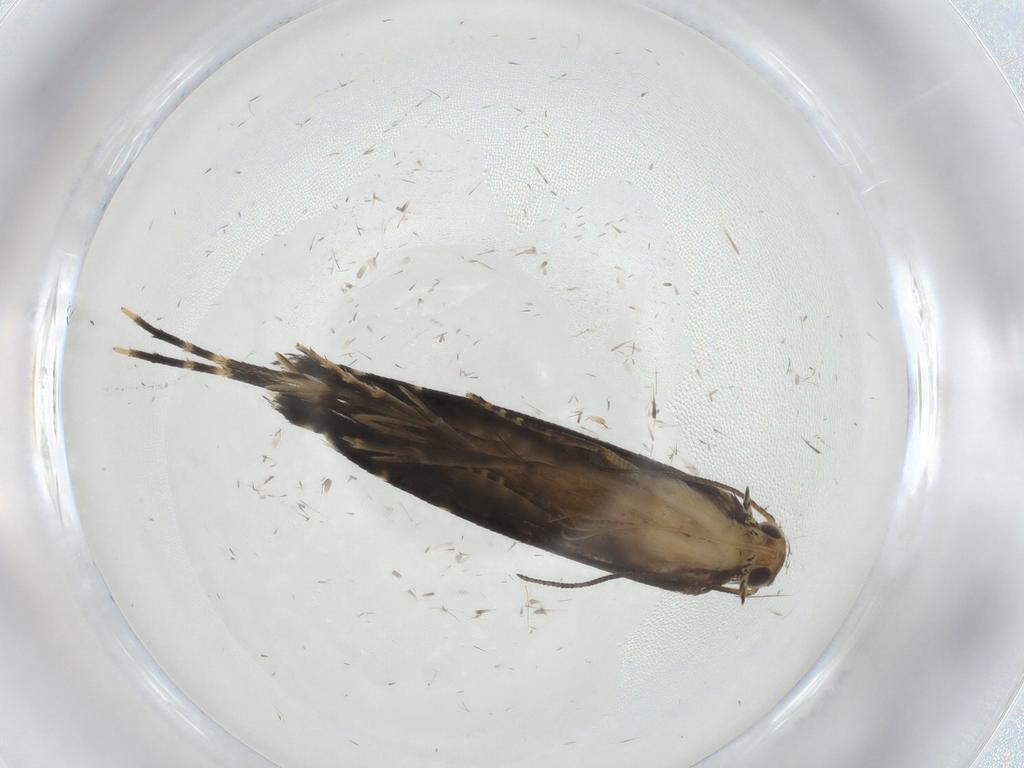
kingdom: Animalia
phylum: Arthropoda
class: Insecta
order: Lepidoptera
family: Glyphipterigidae
